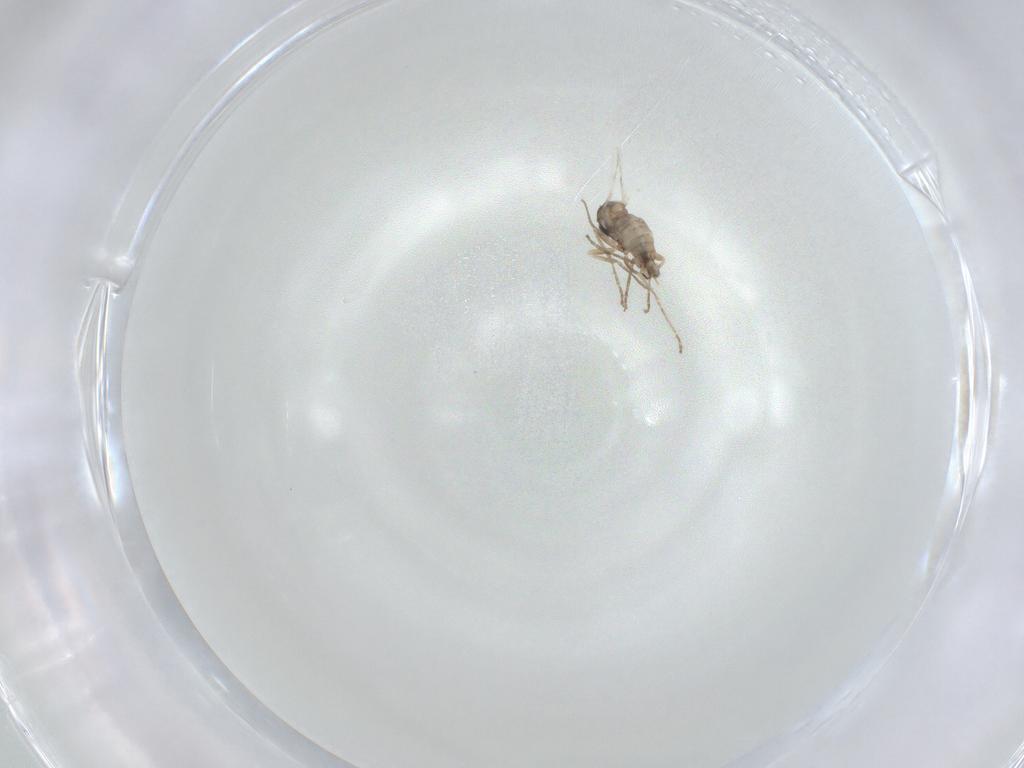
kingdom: Animalia
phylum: Arthropoda
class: Insecta
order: Diptera
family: Cecidomyiidae
